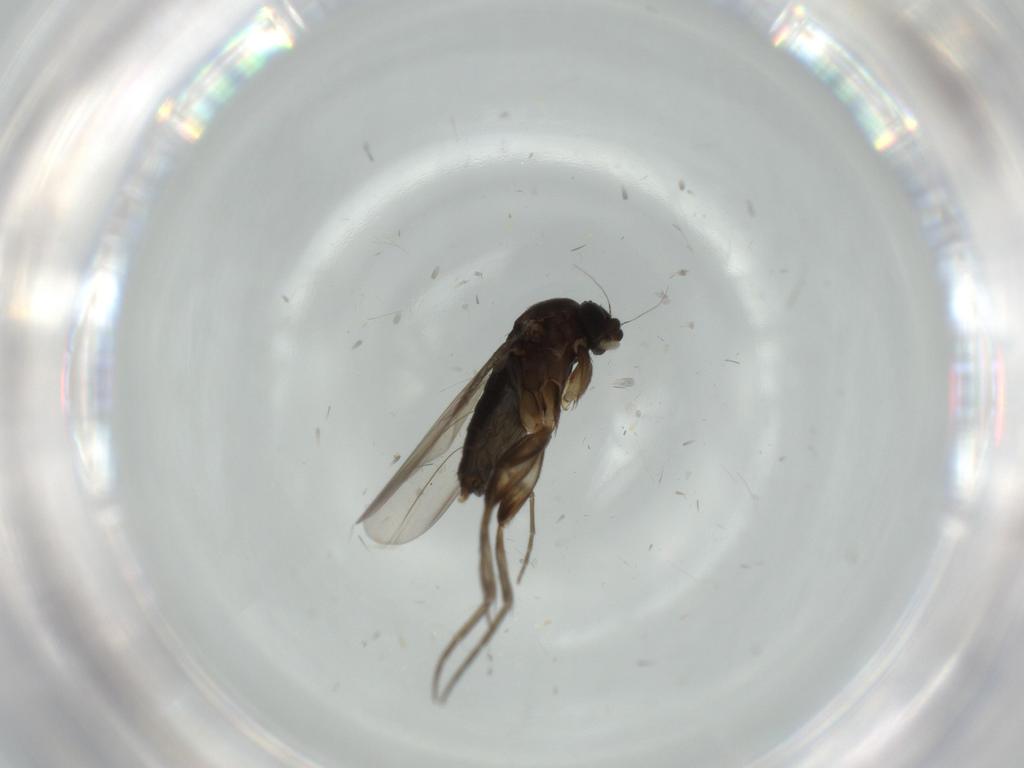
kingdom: Animalia
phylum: Arthropoda
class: Insecta
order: Diptera
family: Phoridae
